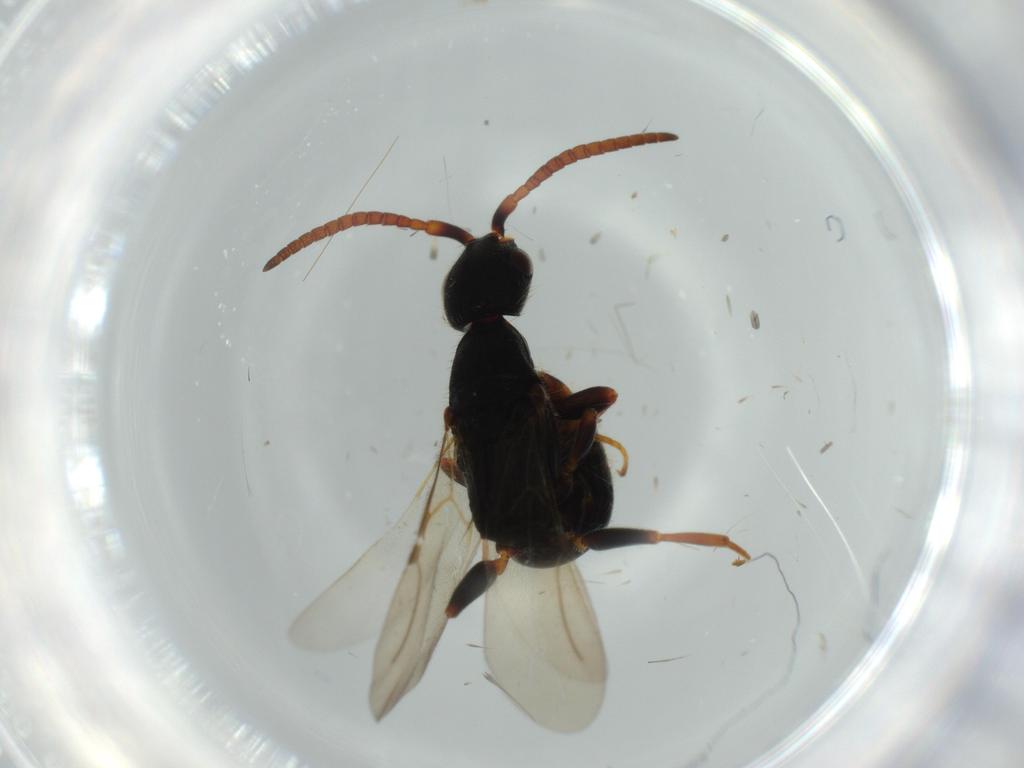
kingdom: Animalia
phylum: Arthropoda
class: Insecta
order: Hymenoptera
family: Bethylidae
